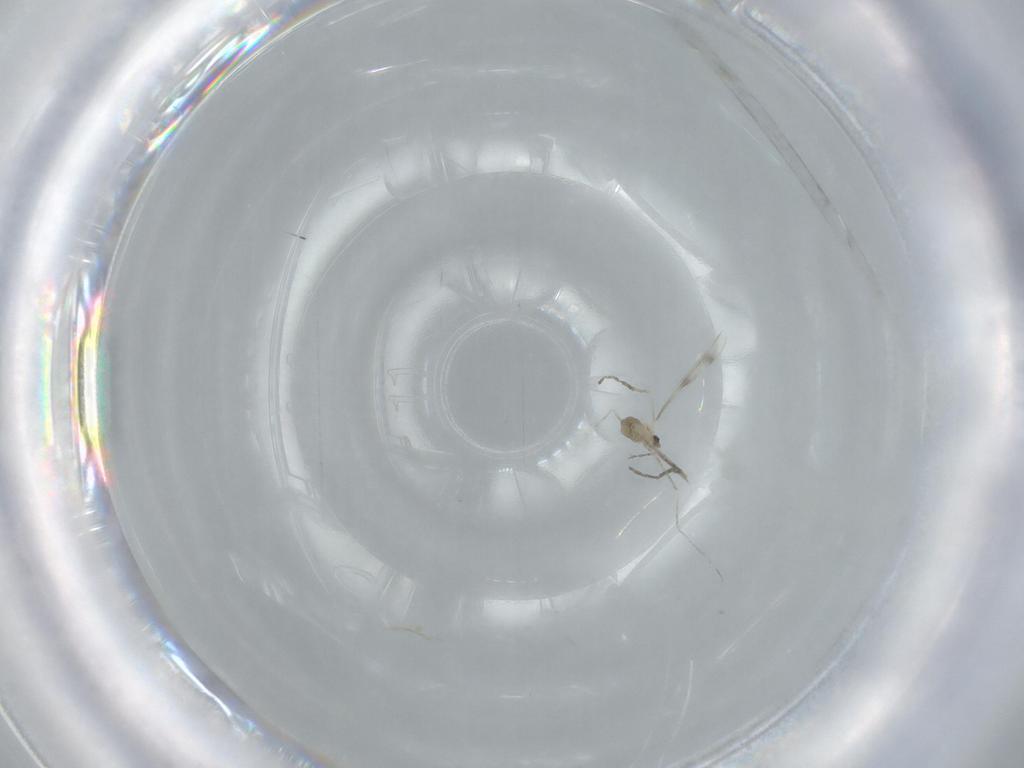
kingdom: Animalia
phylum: Arthropoda
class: Insecta
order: Diptera
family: Cecidomyiidae
